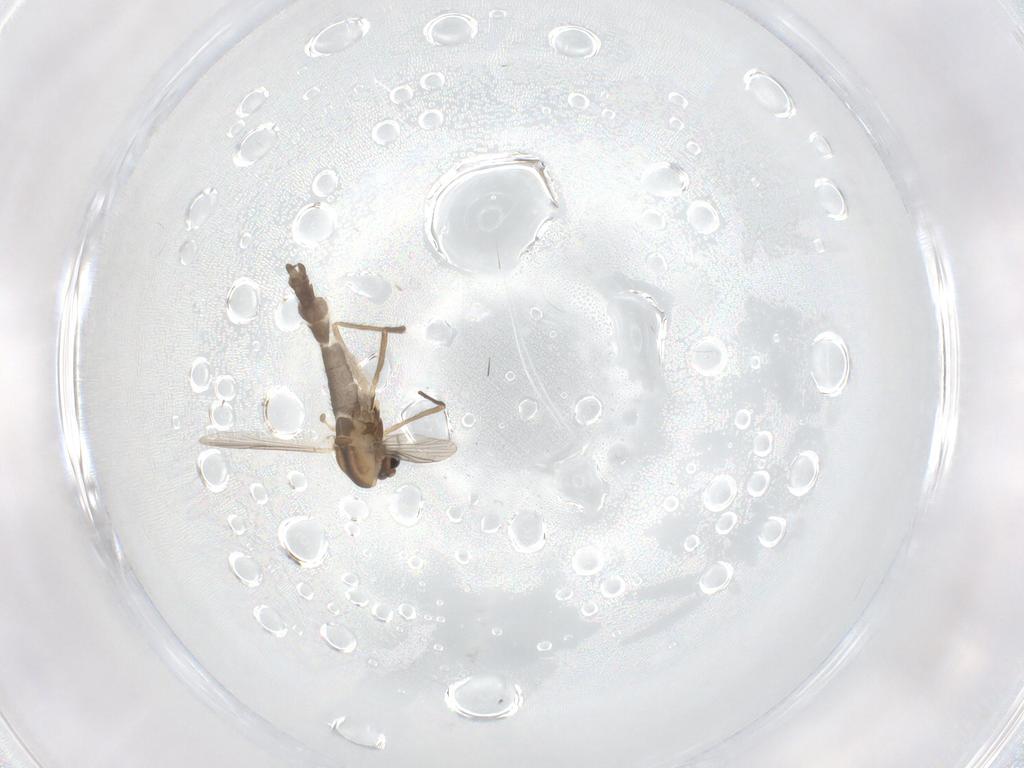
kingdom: Animalia
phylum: Arthropoda
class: Insecta
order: Diptera
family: Chironomidae
